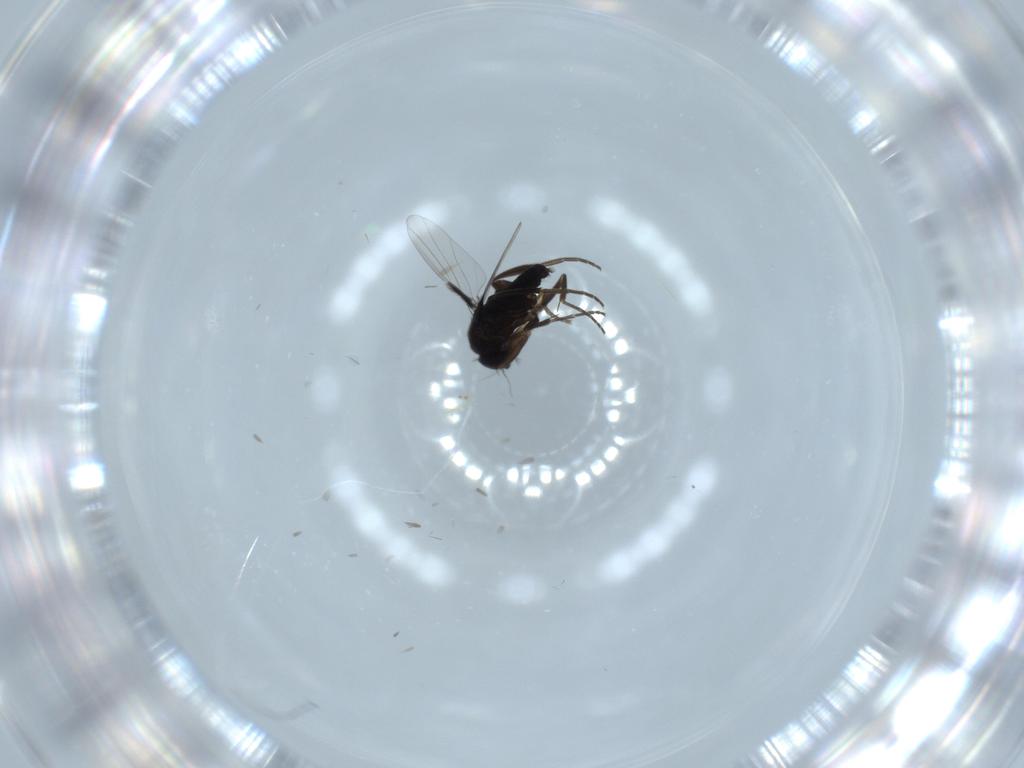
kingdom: Animalia
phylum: Arthropoda
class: Insecta
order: Diptera
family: Phoridae
